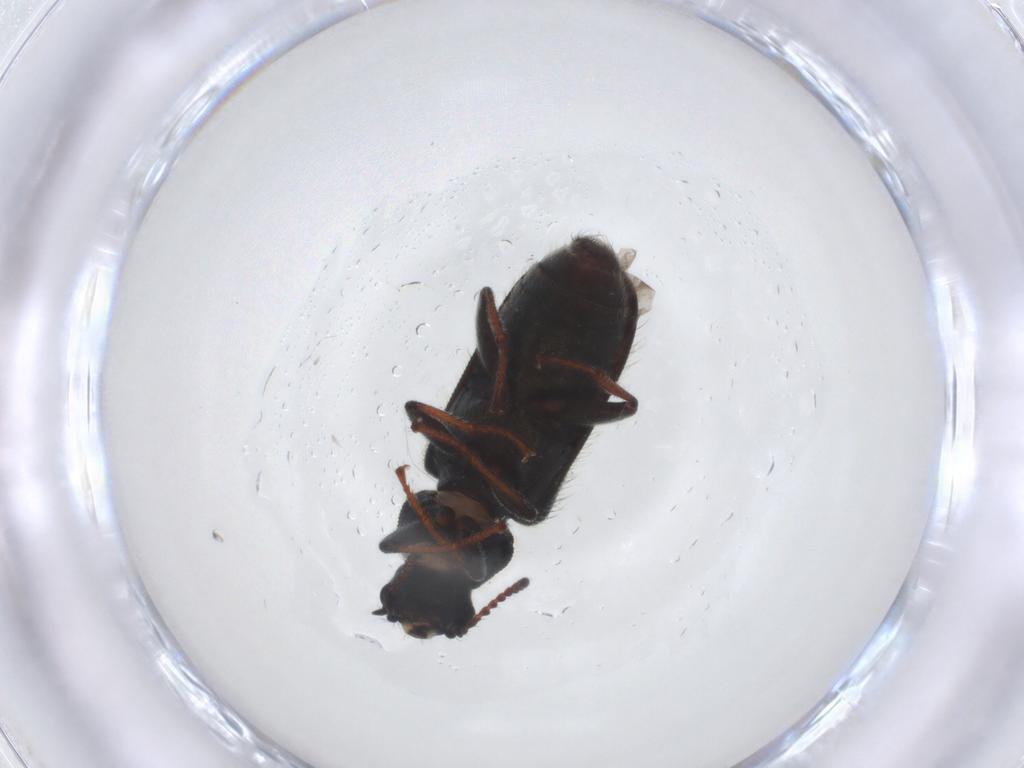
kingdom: Animalia
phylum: Arthropoda
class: Insecta
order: Coleoptera
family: Melyridae
